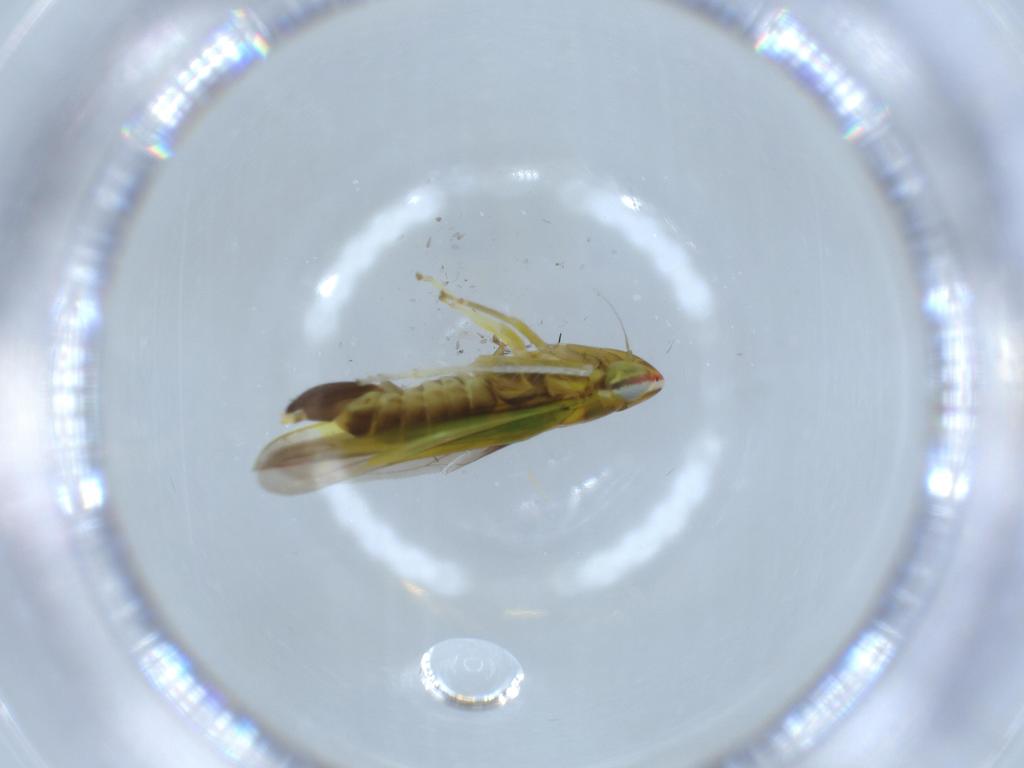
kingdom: Animalia
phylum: Arthropoda
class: Insecta
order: Hemiptera
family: Cicadellidae
